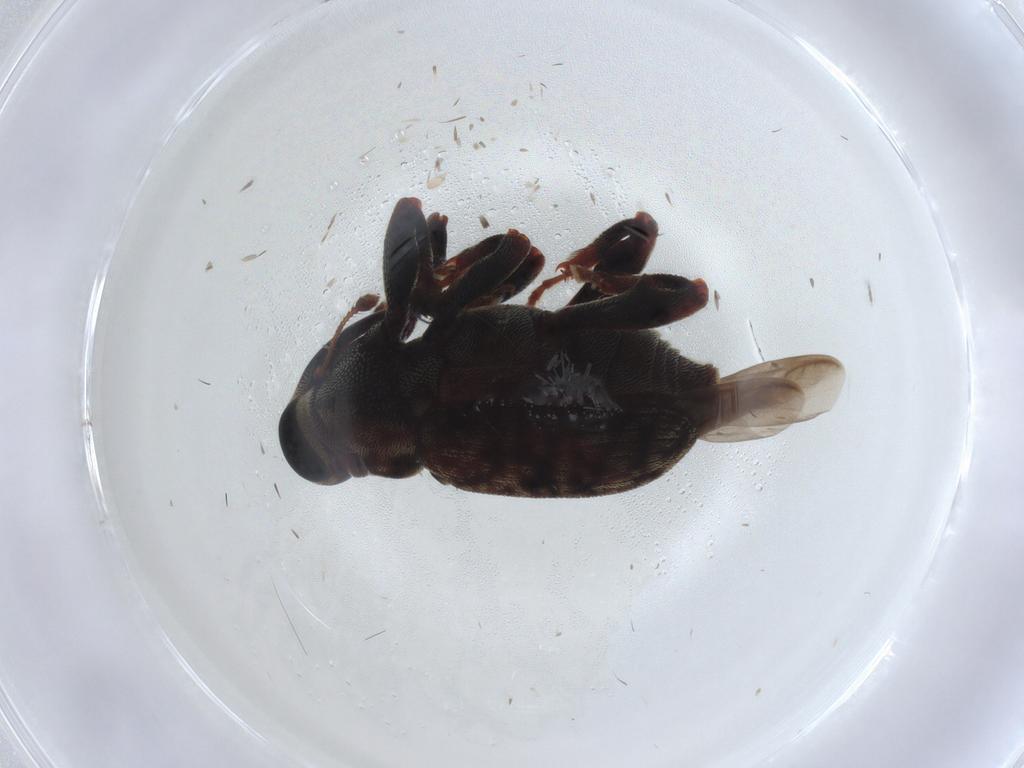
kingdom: Animalia
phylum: Arthropoda
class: Insecta
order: Coleoptera
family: Curculionidae
